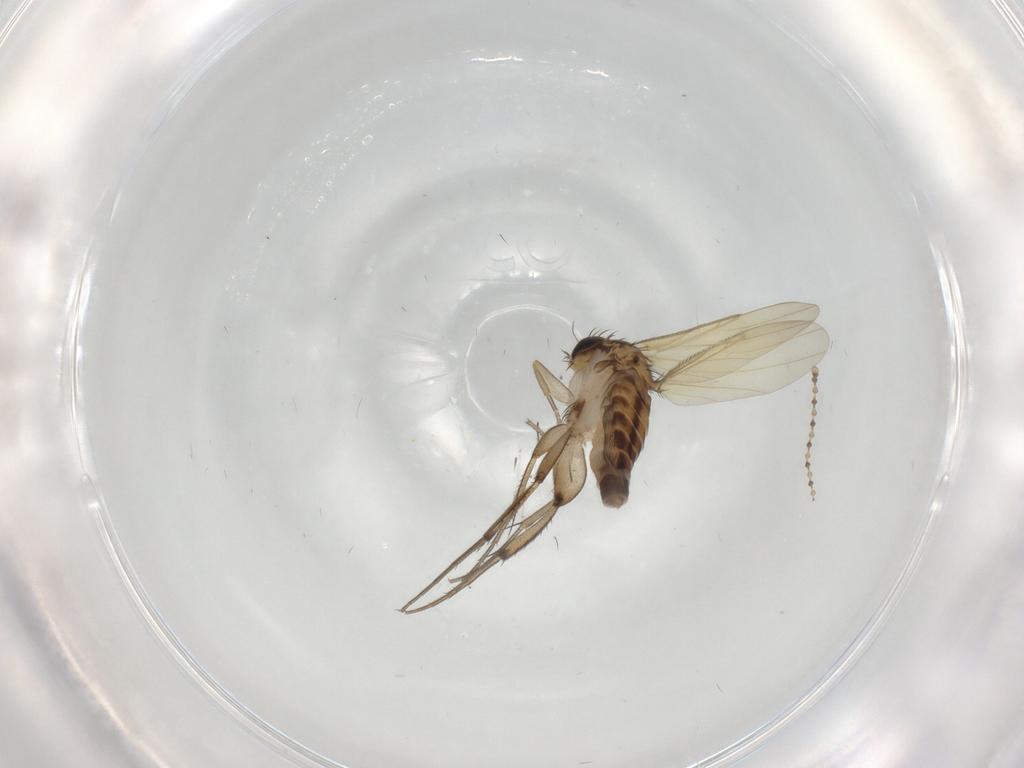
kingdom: Animalia
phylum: Arthropoda
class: Insecta
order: Diptera
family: Phoridae
